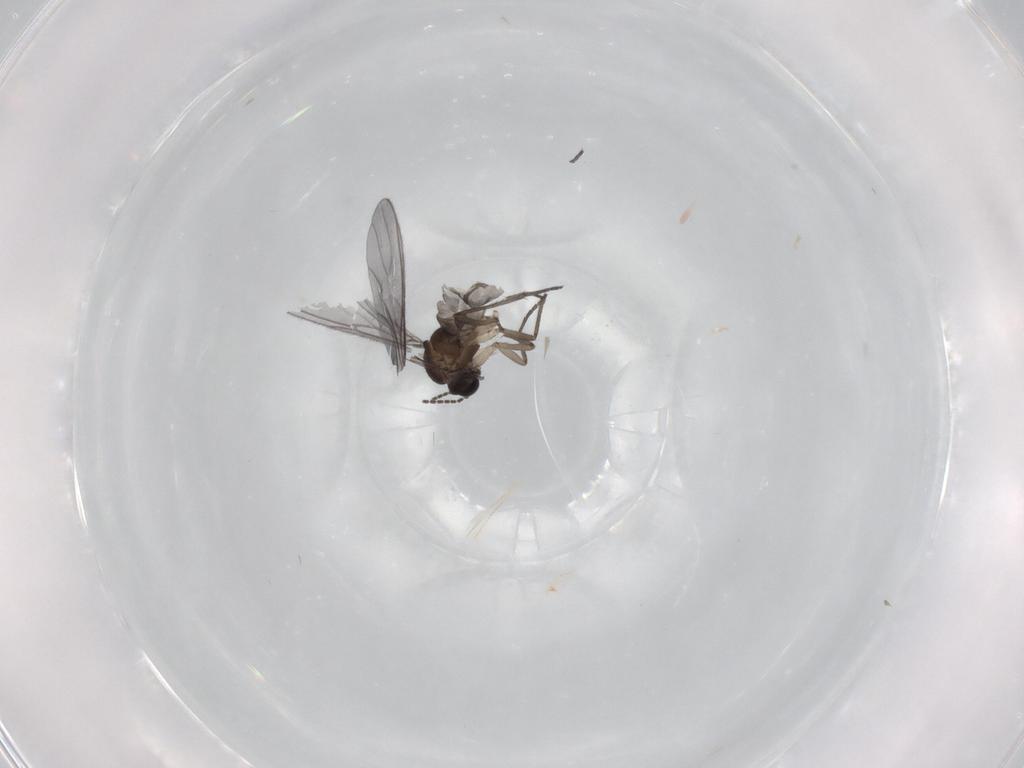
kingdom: Animalia
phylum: Arthropoda
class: Insecta
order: Diptera
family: Sciaridae
